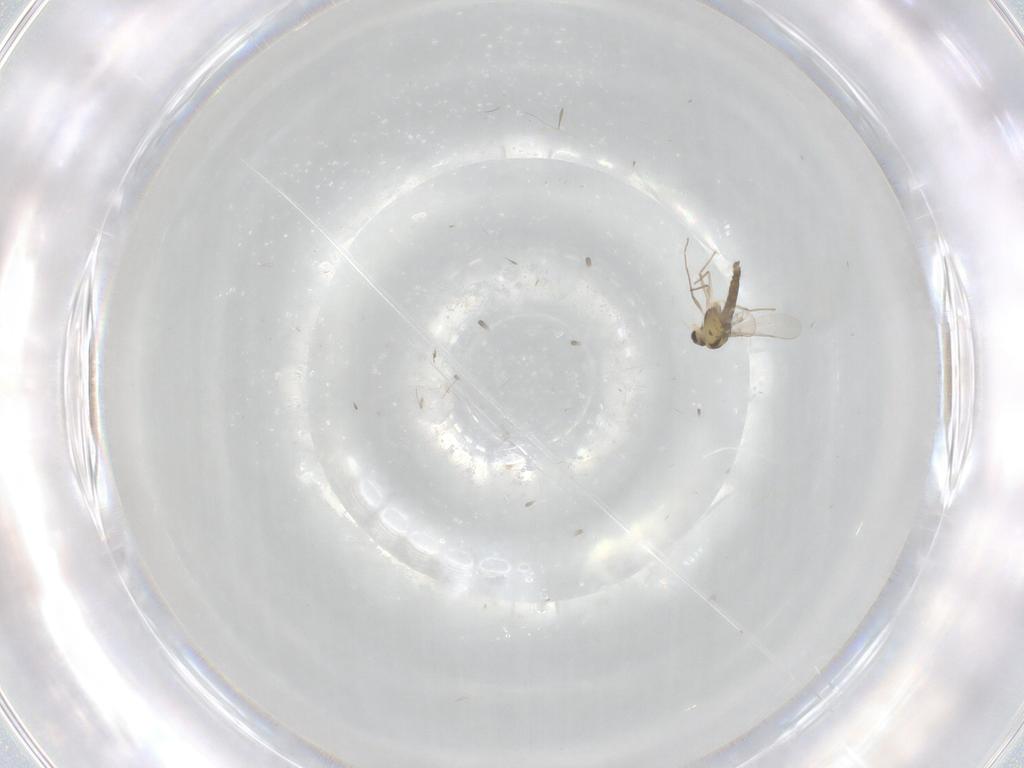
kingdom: Animalia
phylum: Arthropoda
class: Insecta
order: Diptera
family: Chironomidae
